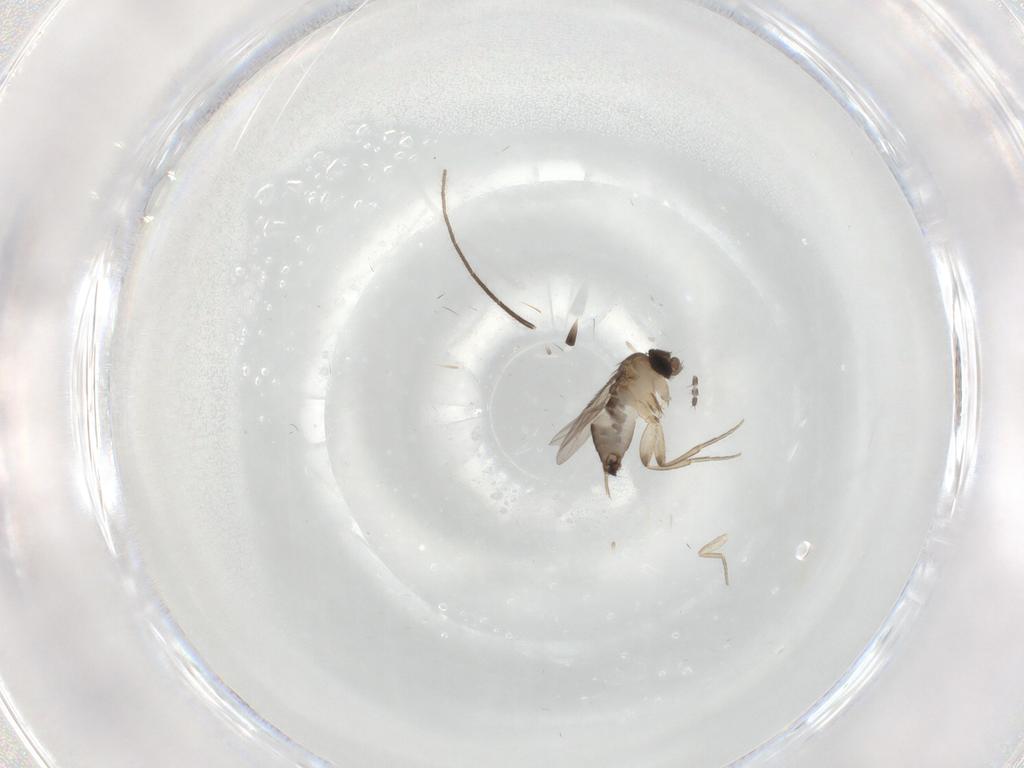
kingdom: Animalia
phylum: Arthropoda
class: Insecta
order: Diptera
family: Phoridae
